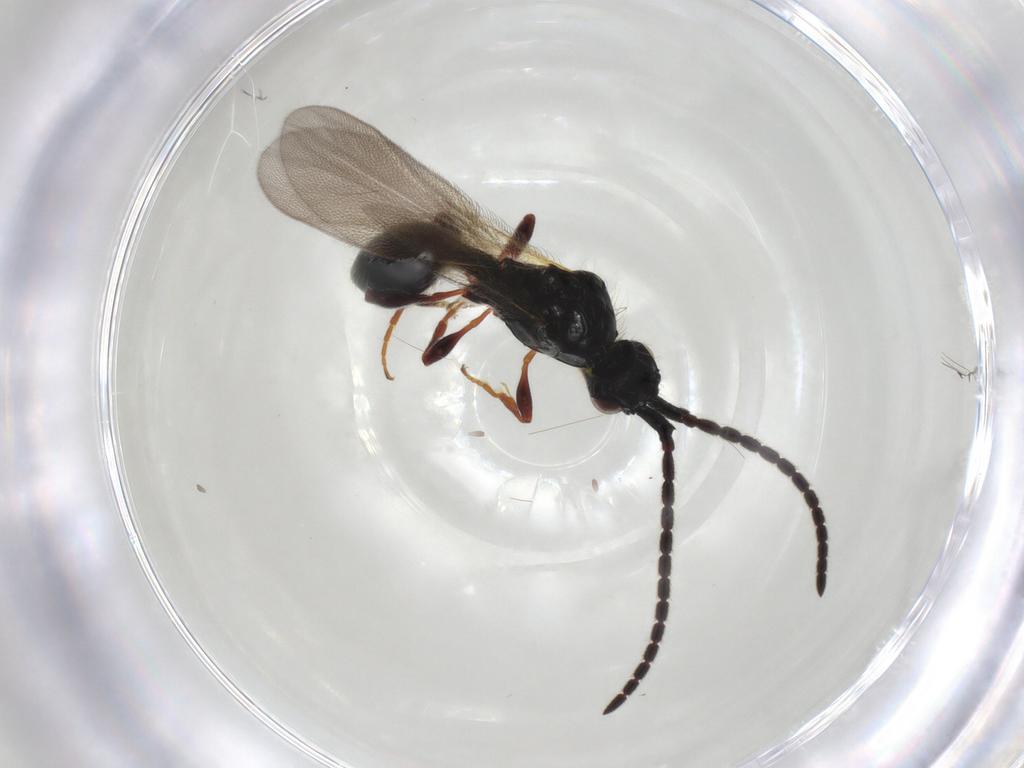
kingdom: Animalia
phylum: Arthropoda
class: Insecta
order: Hymenoptera
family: Diapriidae
